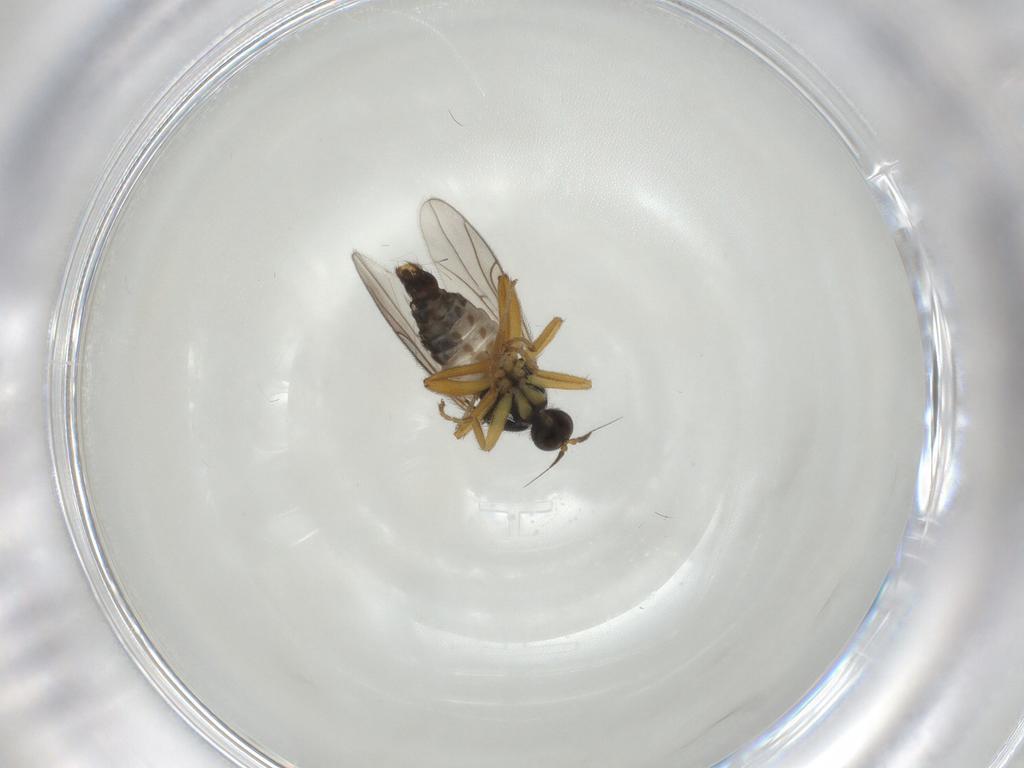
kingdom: Animalia
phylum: Arthropoda
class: Insecta
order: Diptera
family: Hybotidae
